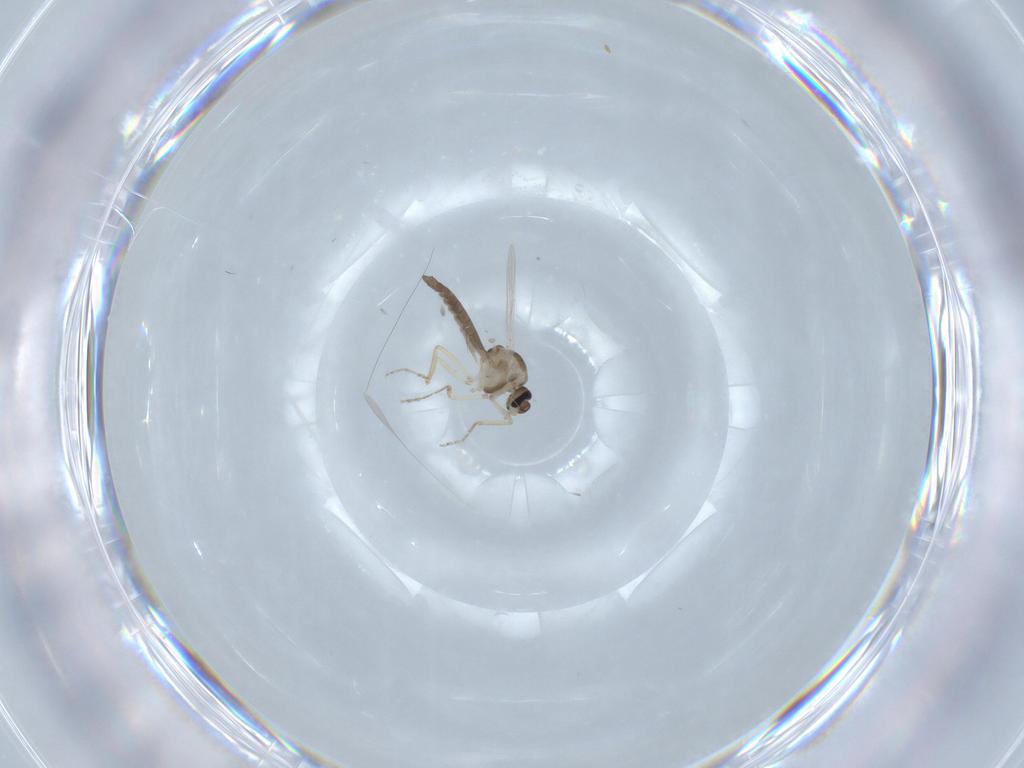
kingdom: Animalia
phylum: Arthropoda
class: Insecta
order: Diptera
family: Ceratopogonidae
